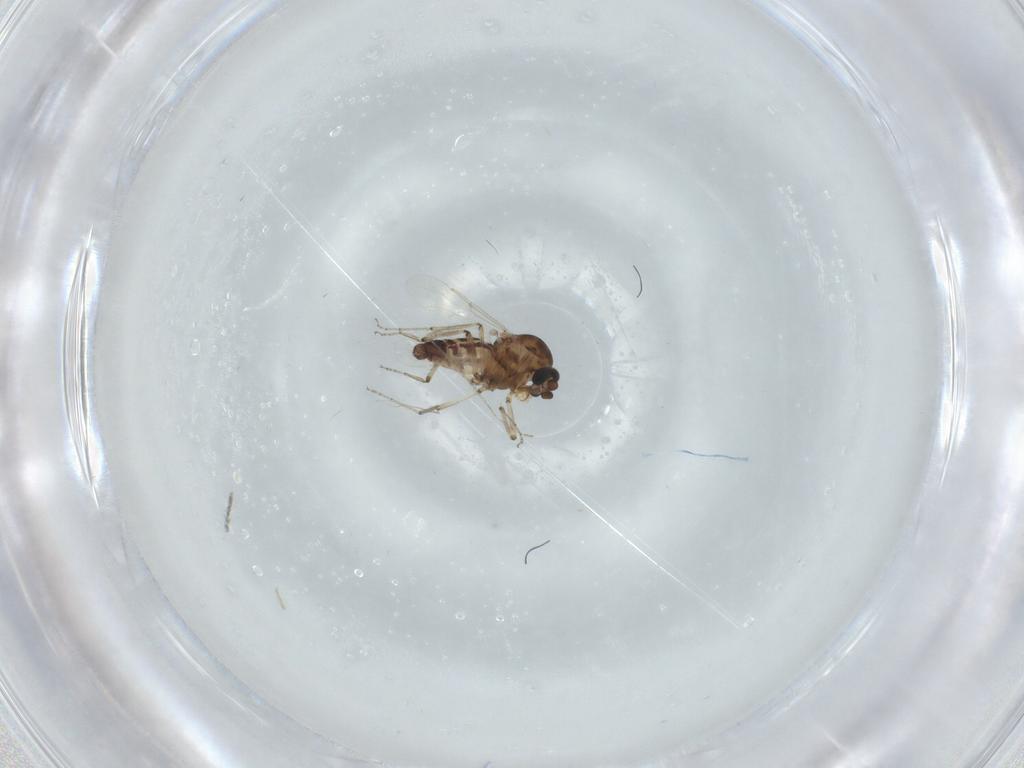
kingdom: Animalia
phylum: Arthropoda
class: Insecta
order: Diptera
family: Ceratopogonidae
